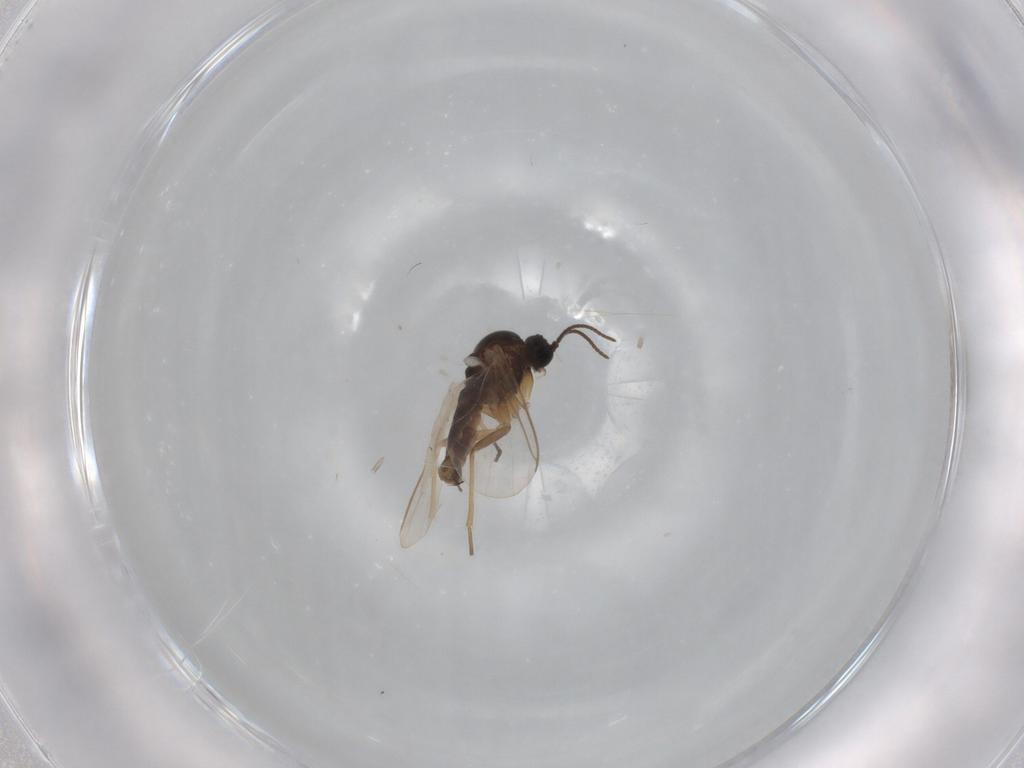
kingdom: Animalia
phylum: Arthropoda
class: Insecta
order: Diptera
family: Sciaridae
